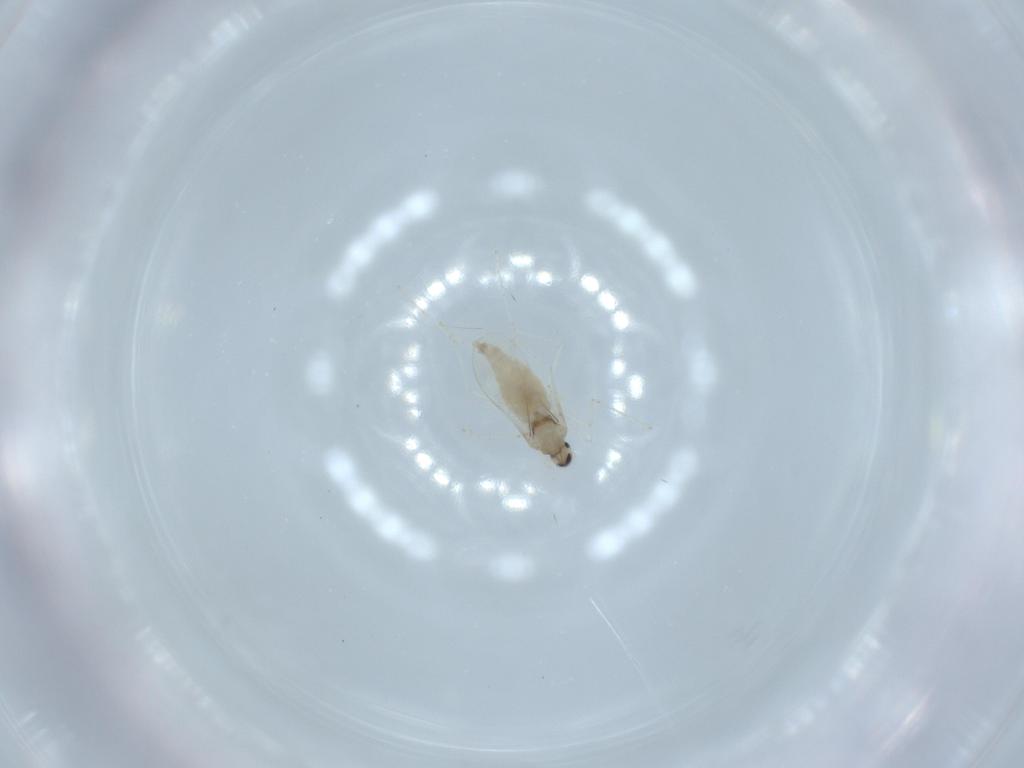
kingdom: Animalia
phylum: Arthropoda
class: Insecta
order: Diptera
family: Cecidomyiidae
